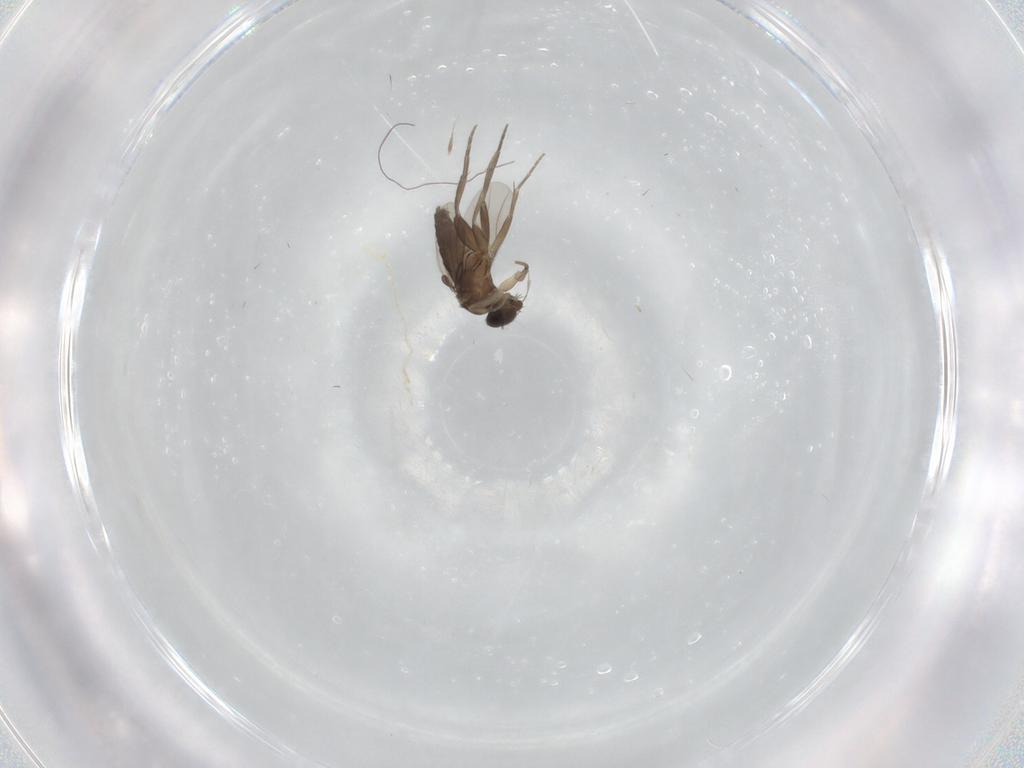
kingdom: Animalia
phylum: Arthropoda
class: Insecta
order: Diptera
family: Phoridae
